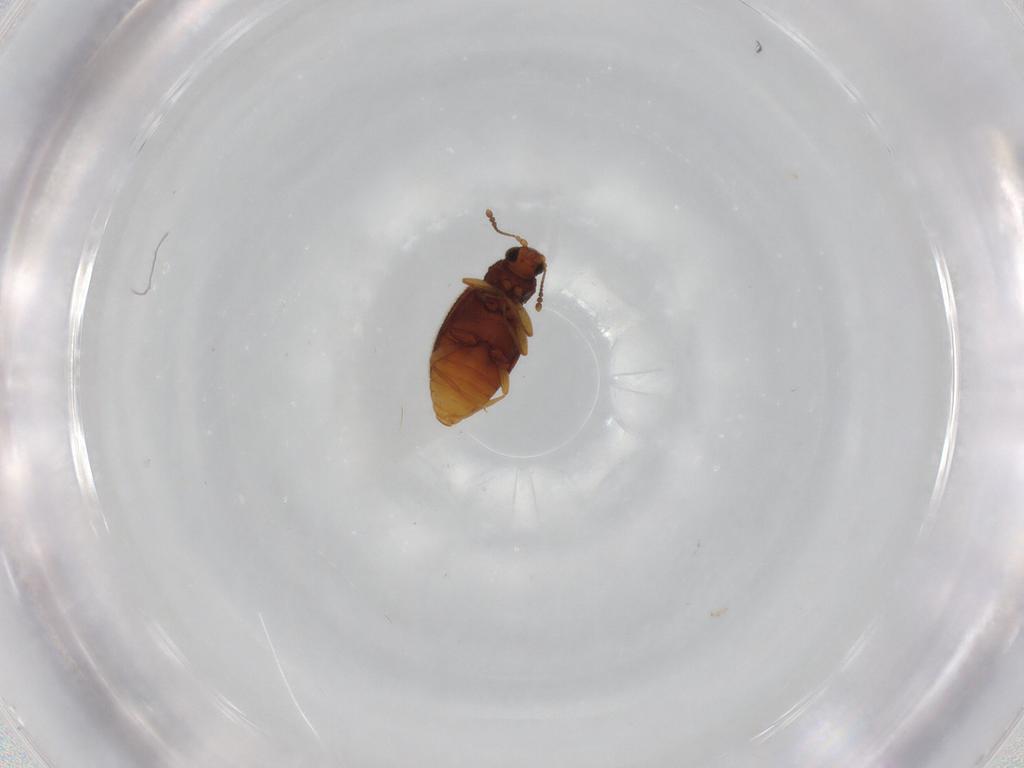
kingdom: Animalia
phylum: Arthropoda
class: Insecta
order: Coleoptera
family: Latridiidae
